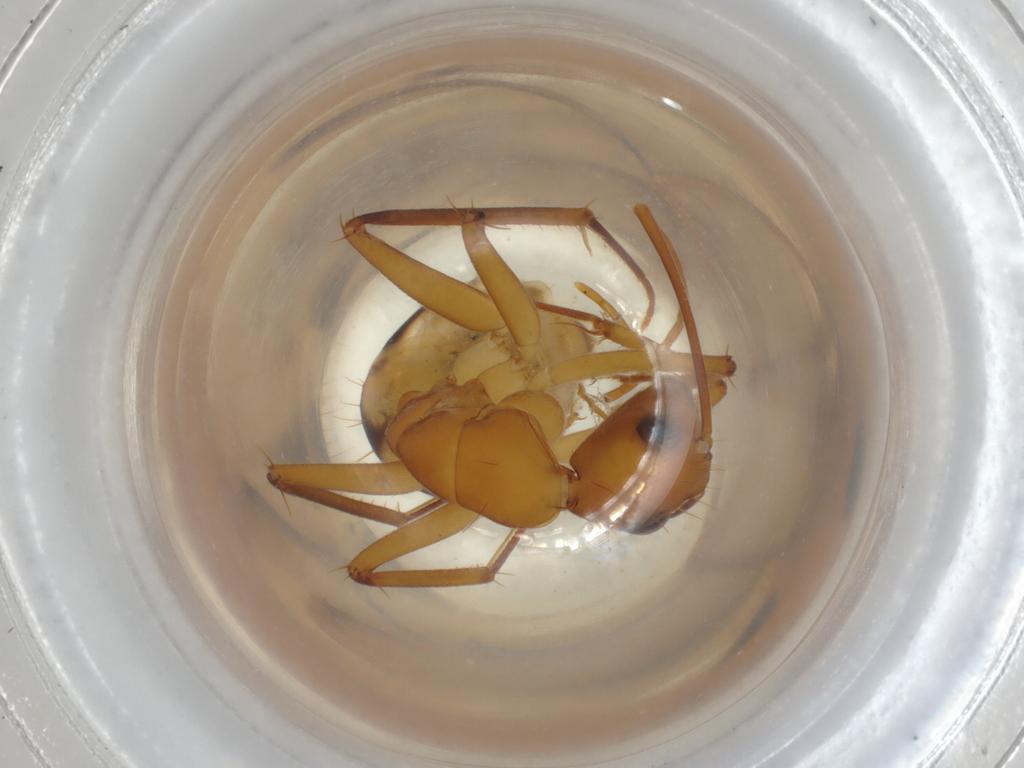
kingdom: Animalia
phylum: Arthropoda
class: Insecta
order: Hymenoptera
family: Formicidae
